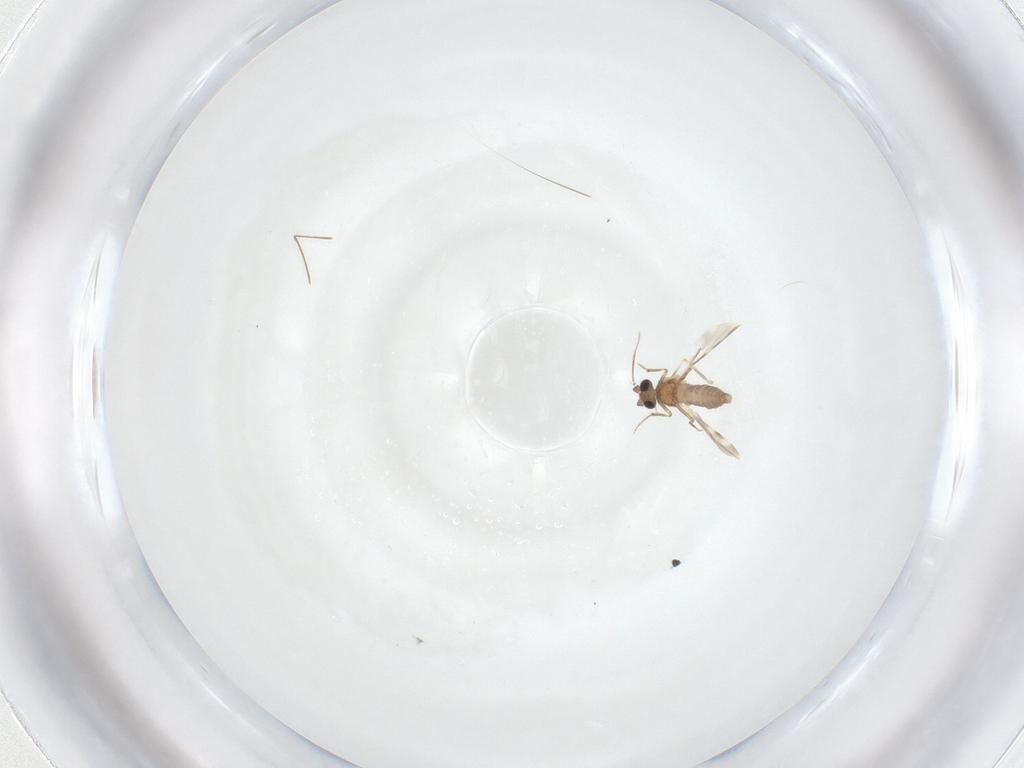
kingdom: Animalia
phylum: Arthropoda
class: Insecta
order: Diptera
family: Ceratopogonidae
